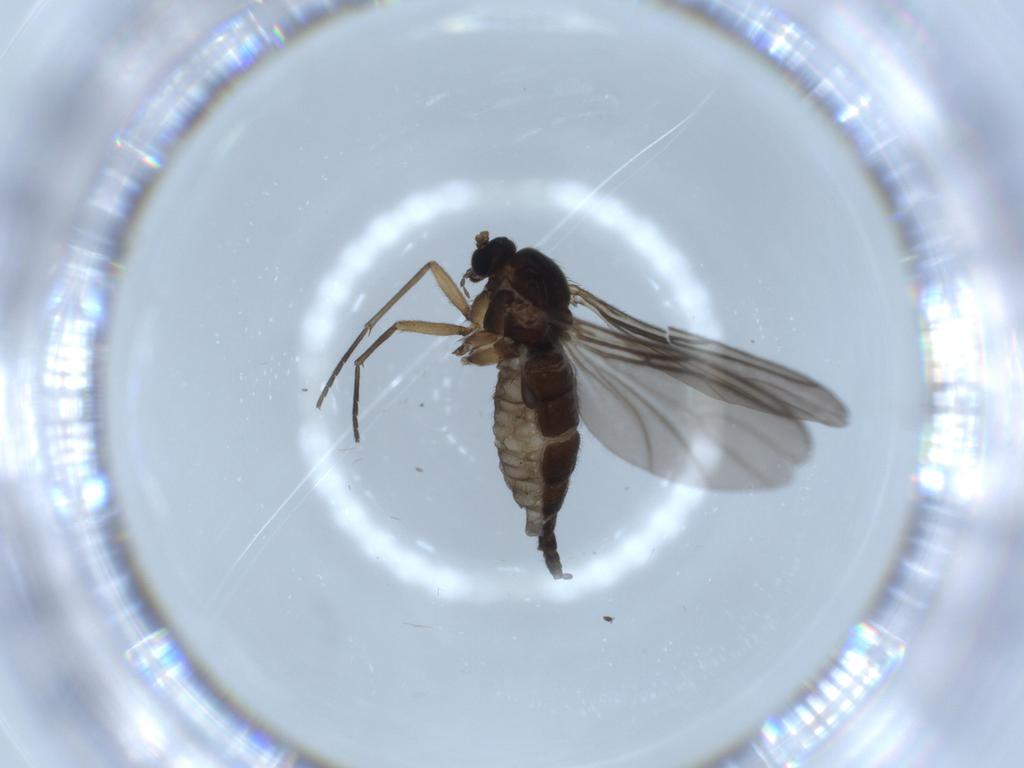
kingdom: Animalia
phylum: Arthropoda
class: Insecta
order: Diptera
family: Sciaridae
